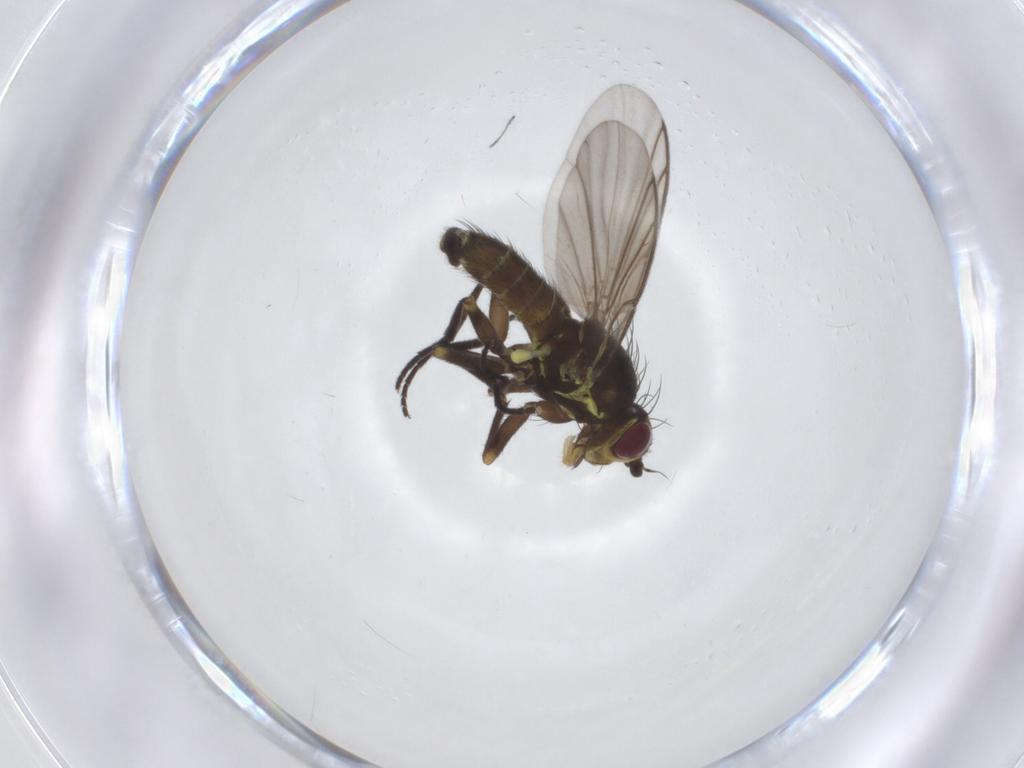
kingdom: Animalia
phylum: Arthropoda
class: Insecta
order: Diptera
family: Agromyzidae
